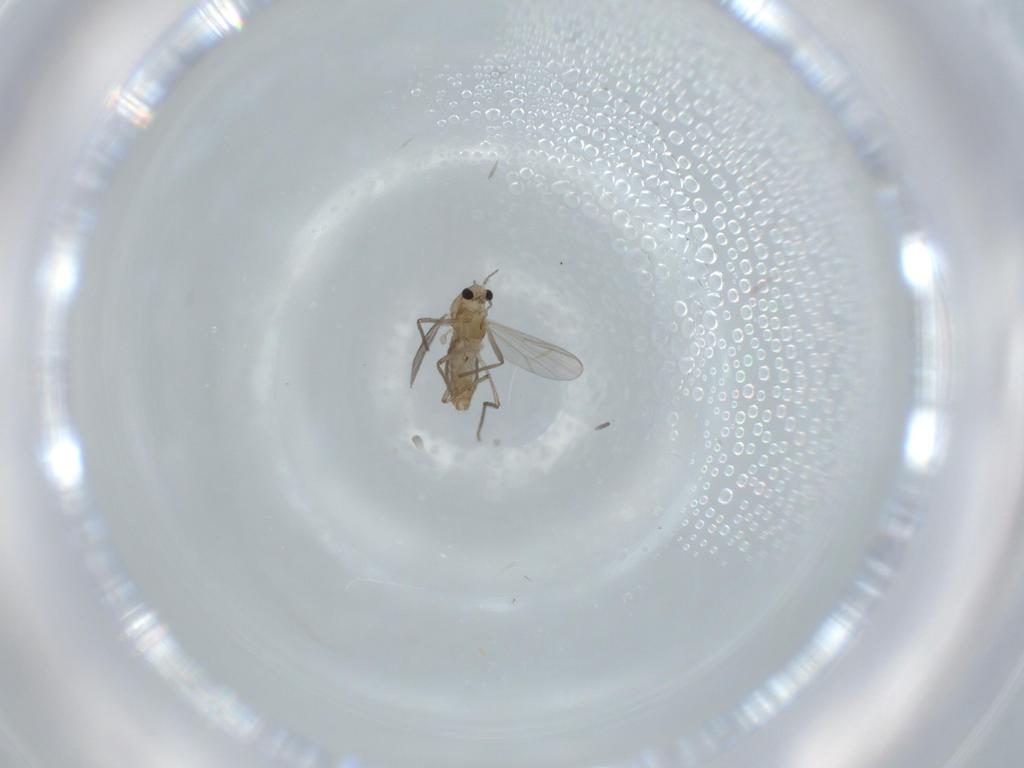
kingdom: Animalia
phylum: Arthropoda
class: Insecta
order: Diptera
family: Chironomidae
